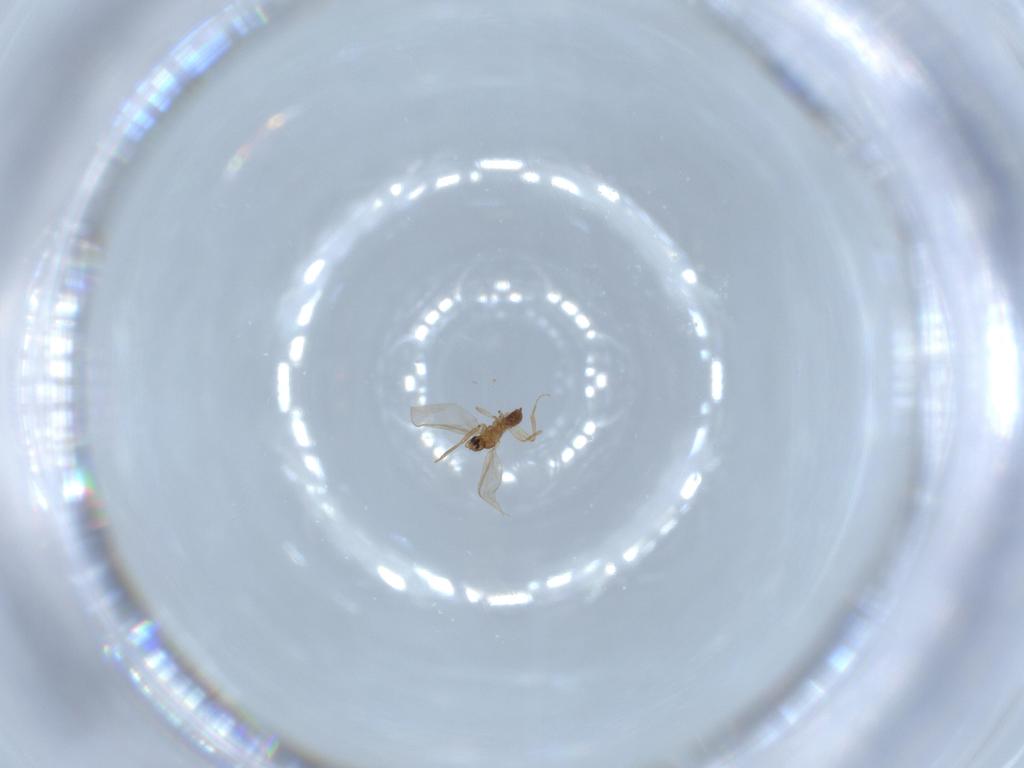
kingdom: Animalia
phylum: Arthropoda
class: Insecta
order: Diptera
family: Sciaridae
